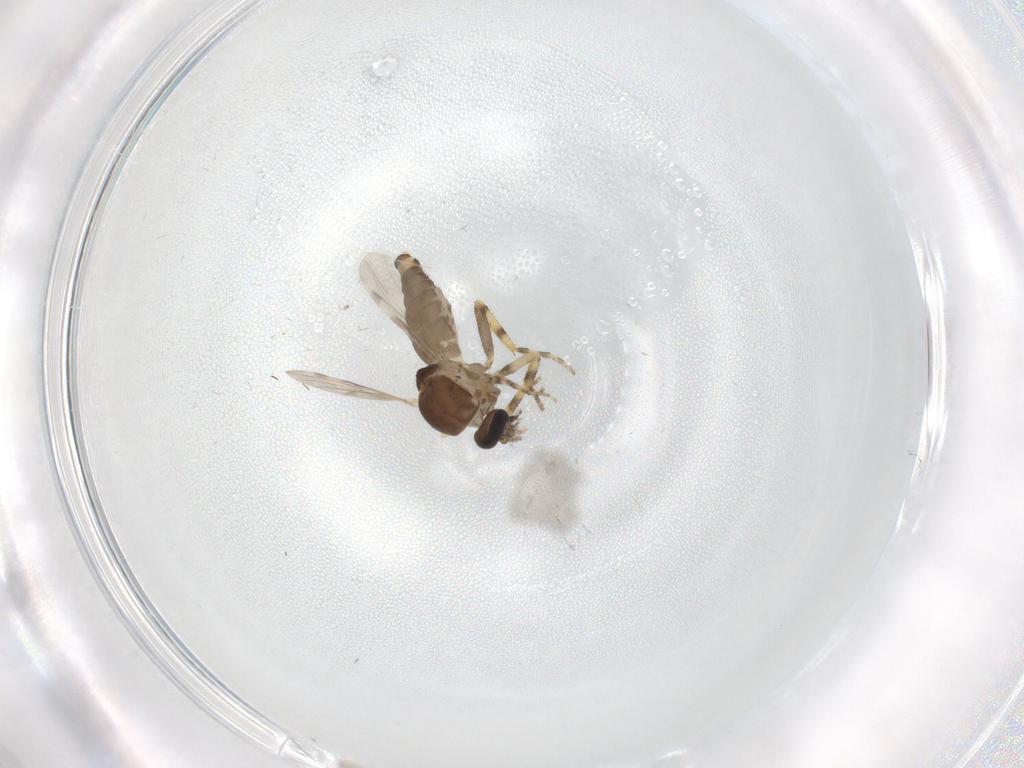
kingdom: Animalia
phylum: Arthropoda
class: Insecta
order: Diptera
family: Ceratopogonidae
